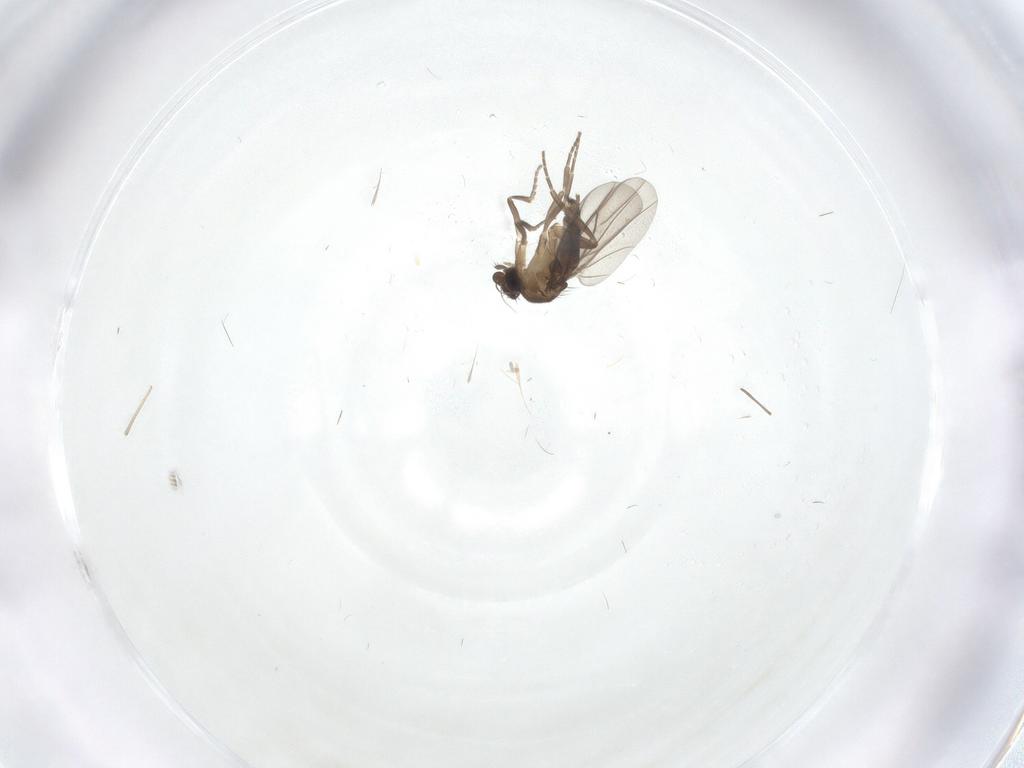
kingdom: Animalia
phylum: Arthropoda
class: Insecta
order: Diptera
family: Phoridae
